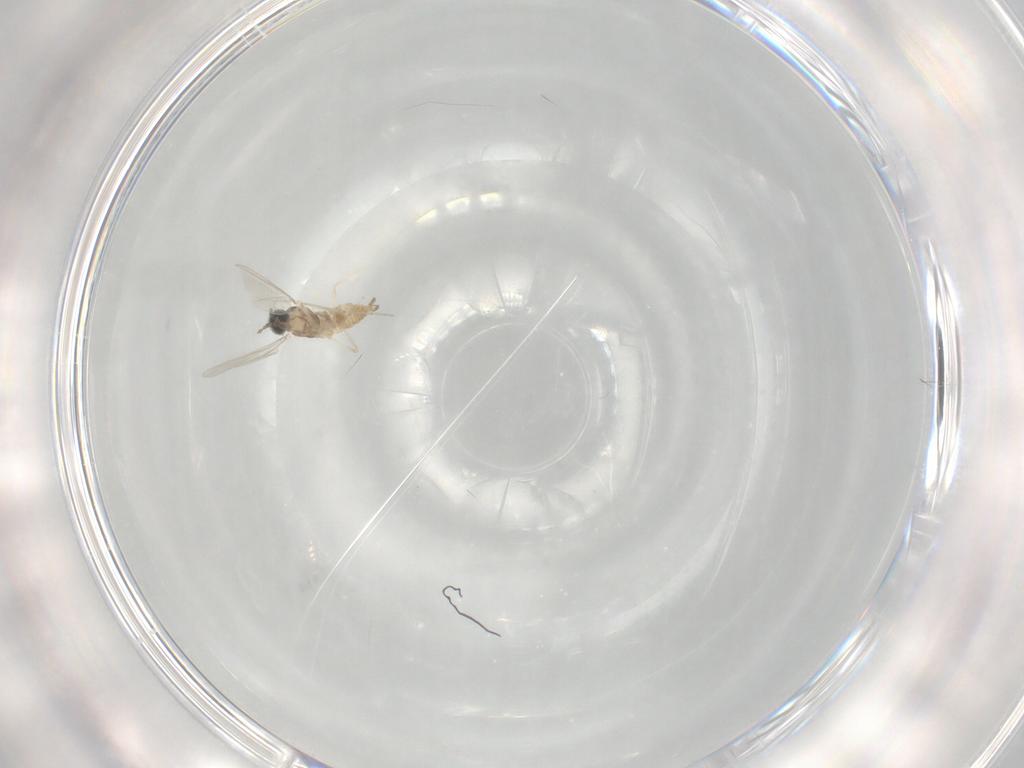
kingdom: Animalia
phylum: Arthropoda
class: Insecta
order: Diptera
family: Cecidomyiidae
